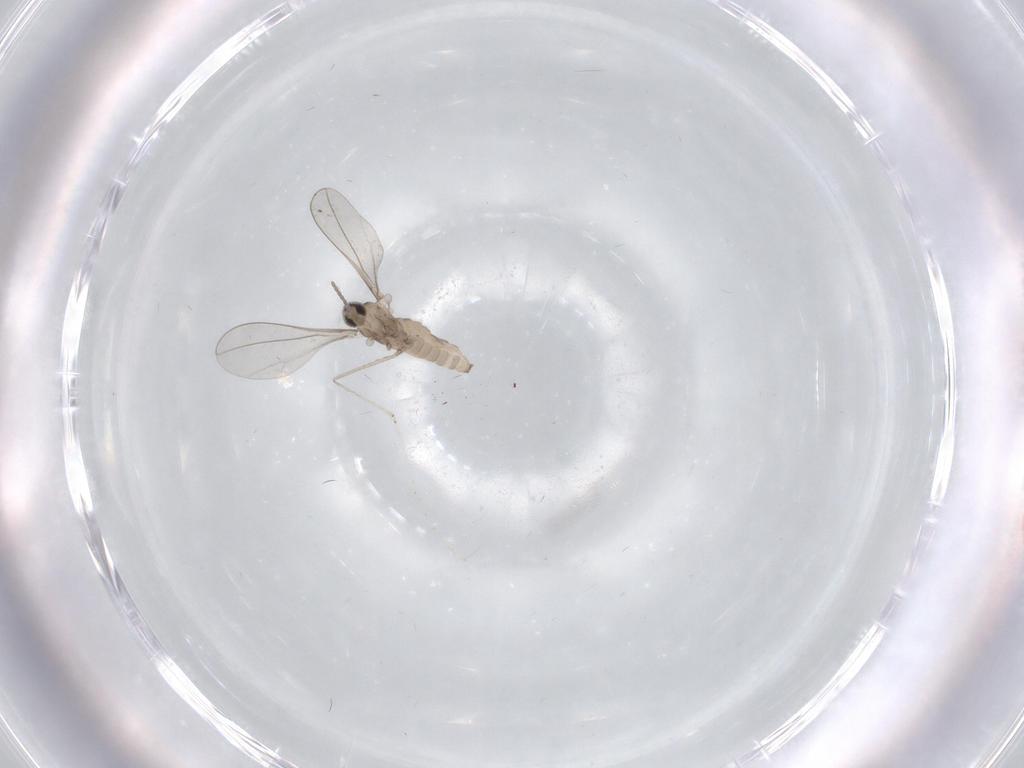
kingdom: Animalia
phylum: Arthropoda
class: Insecta
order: Diptera
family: Cecidomyiidae
